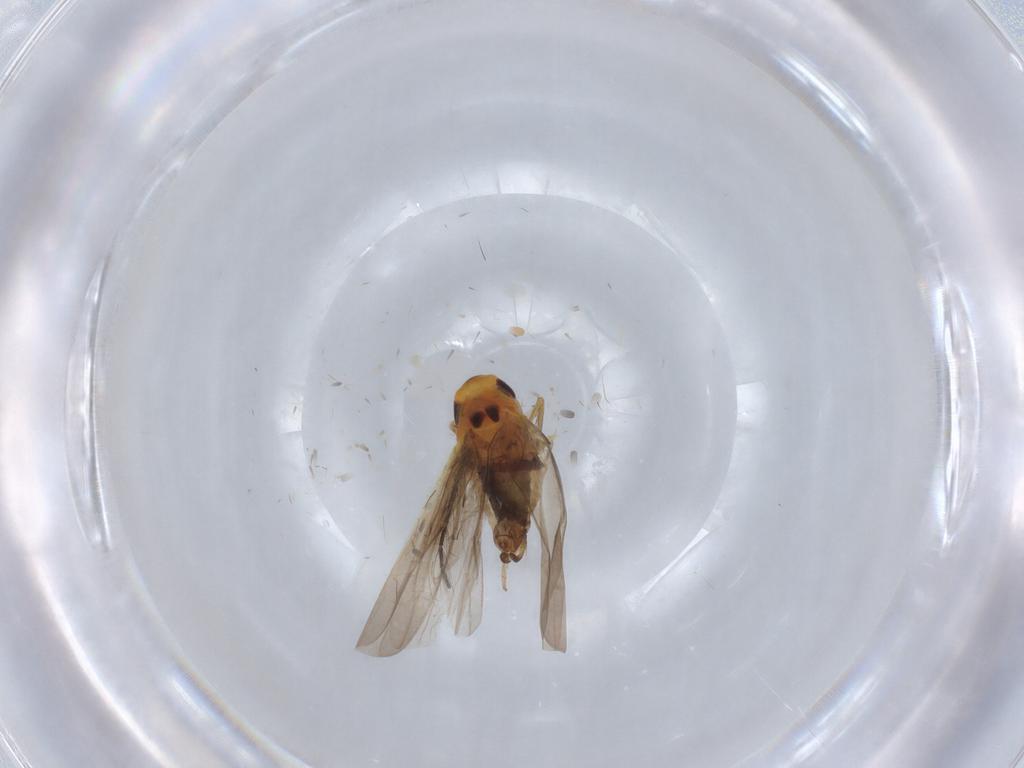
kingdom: Animalia
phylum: Arthropoda
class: Insecta
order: Hemiptera
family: Cicadellidae
